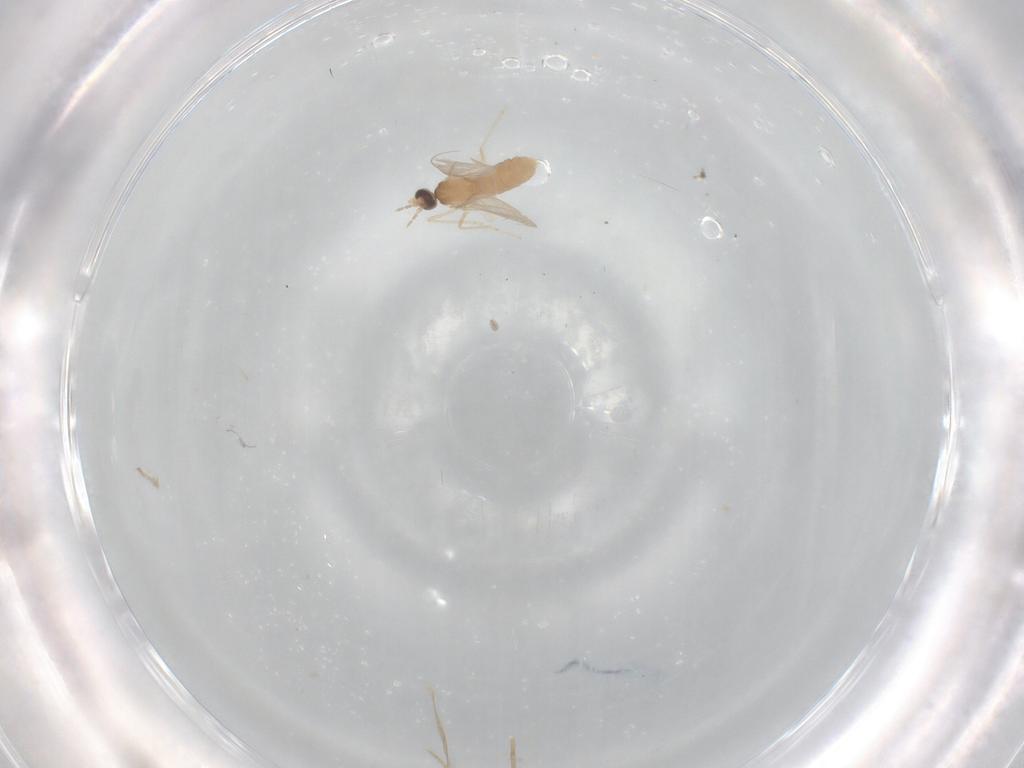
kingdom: Animalia
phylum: Arthropoda
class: Insecta
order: Diptera
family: Cecidomyiidae
